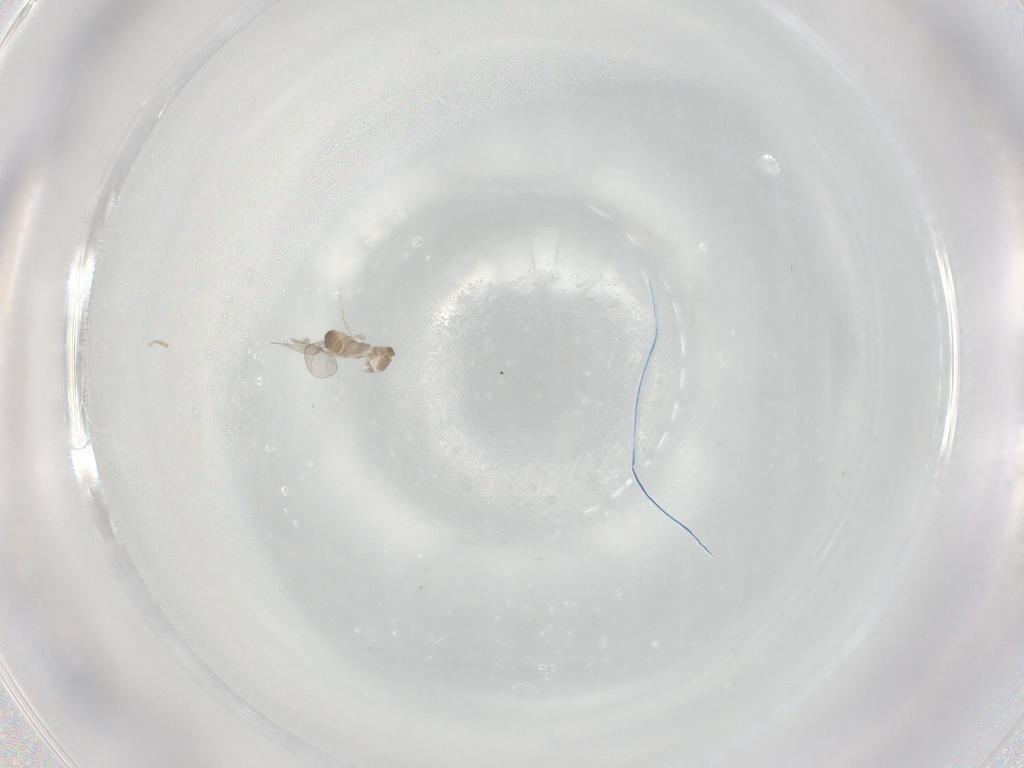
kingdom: Animalia
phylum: Arthropoda
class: Insecta
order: Diptera
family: Cecidomyiidae
